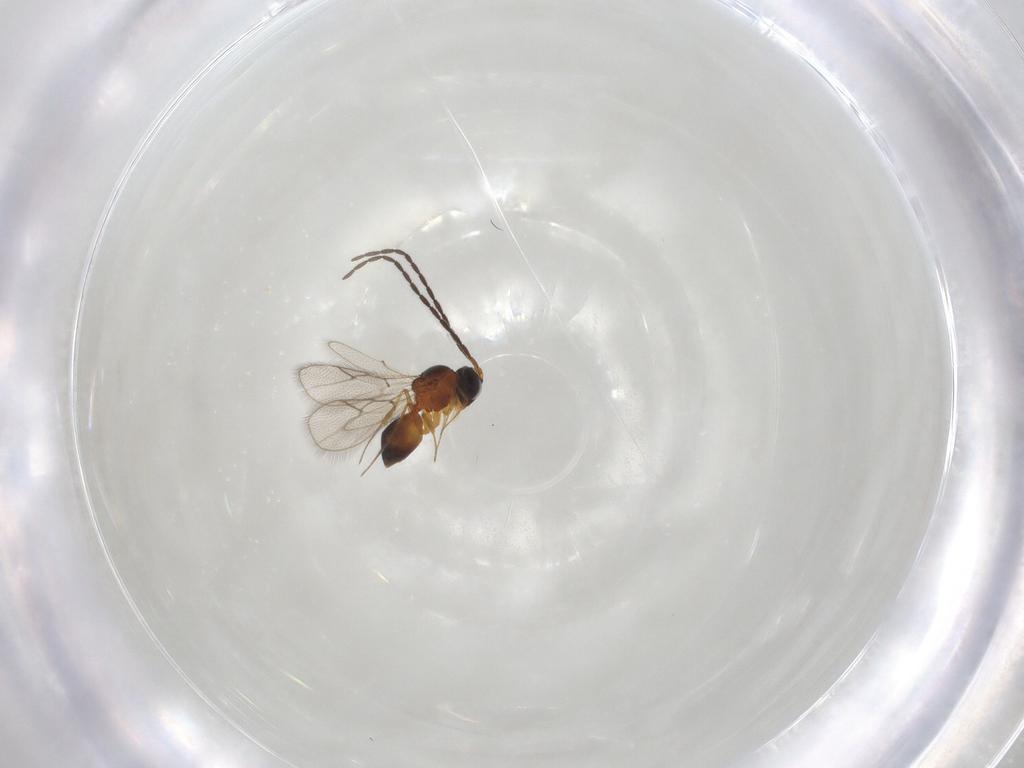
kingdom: Animalia
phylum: Arthropoda
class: Insecta
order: Hymenoptera
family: Figitidae
